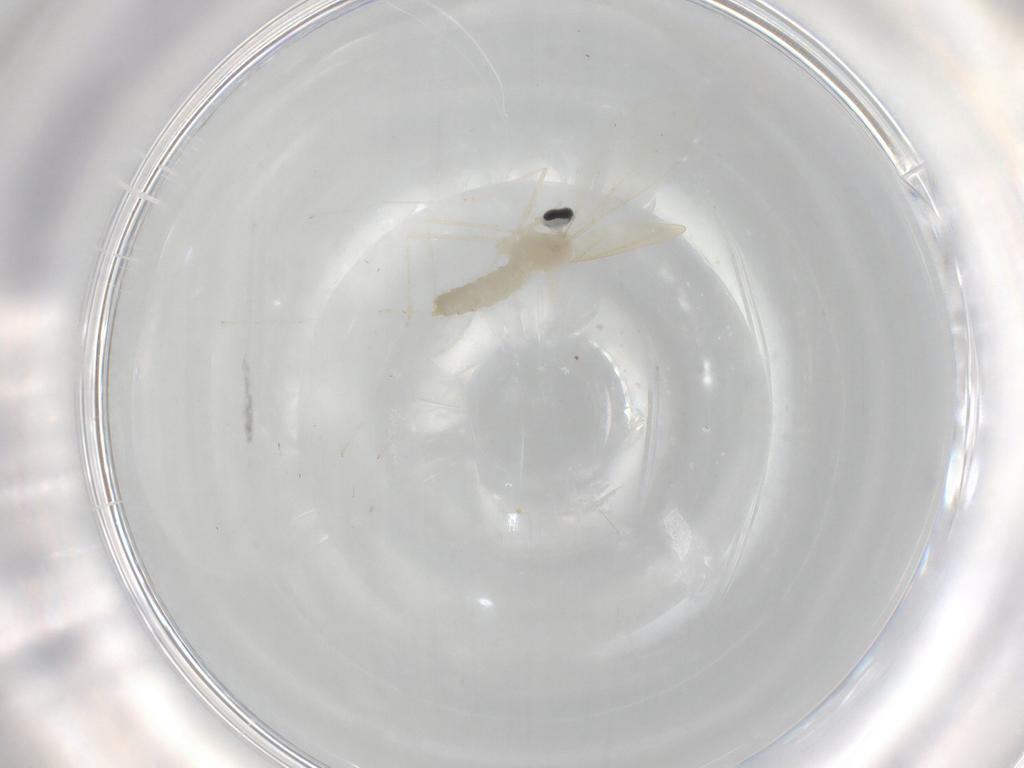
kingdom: Animalia
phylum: Arthropoda
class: Insecta
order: Diptera
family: Cecidomyiidae
